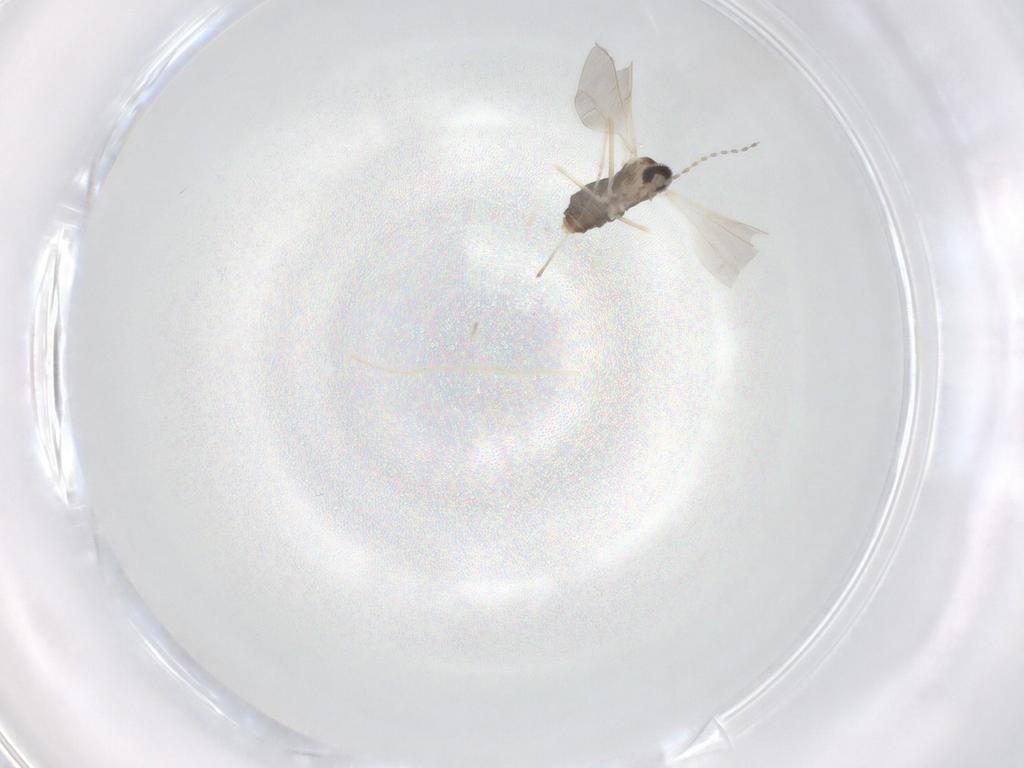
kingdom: Animalia
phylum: Arthropoda
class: Insecta
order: Diptera
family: Cecidomyiidae
